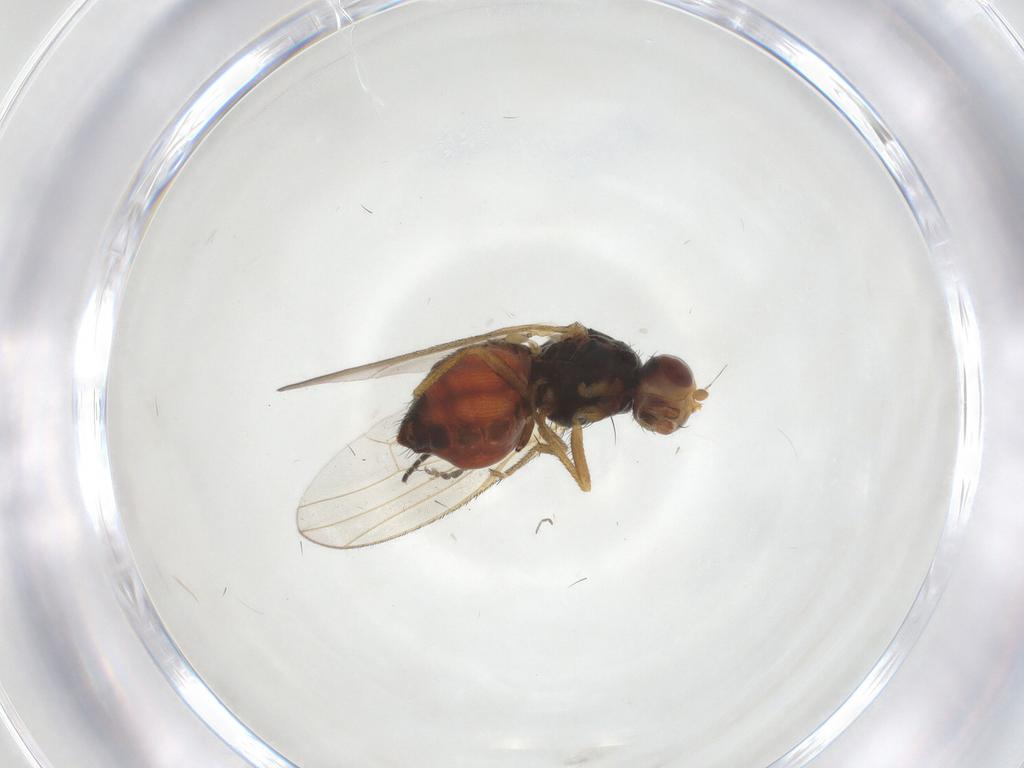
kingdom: Animalia
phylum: Arthropoda
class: Insecta
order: Diptera
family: Heleomyzidae
